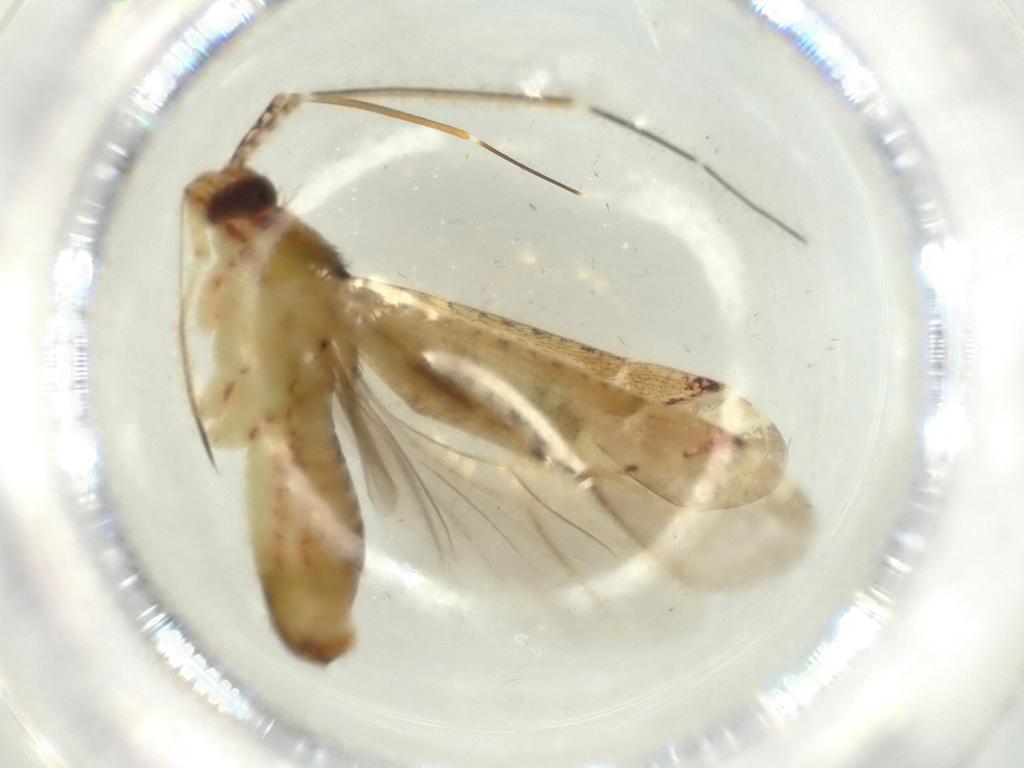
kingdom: Animalia
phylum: Arthropoda
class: Insecta
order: Hemiptera
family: Miridae
